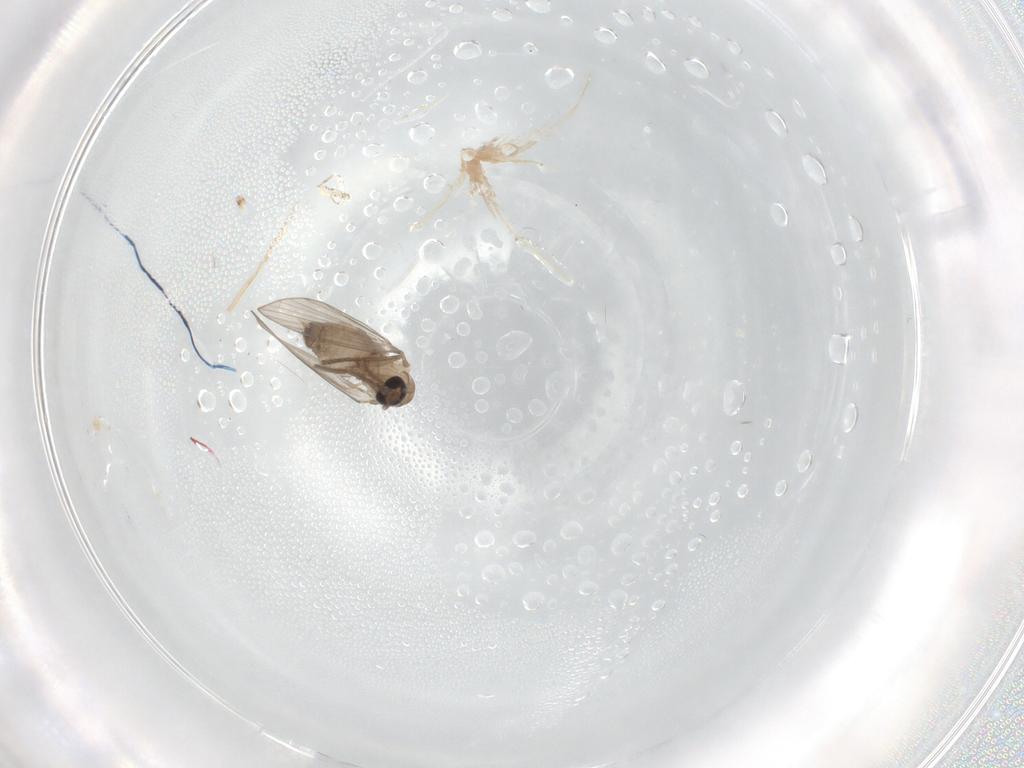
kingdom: Animalia
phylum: Arthropoda
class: Insecta
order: Diptera
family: Psychodidae
